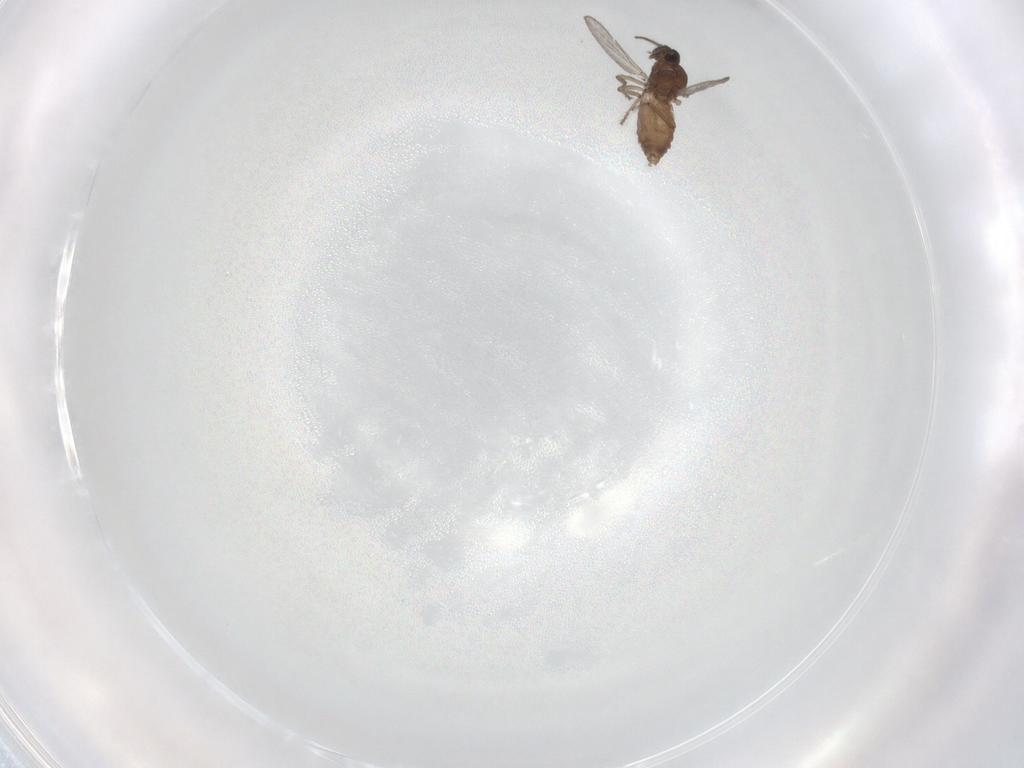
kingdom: Animalia
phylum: Arthropoda
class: Insecta
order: Diptera
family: Ceratopogonidae
